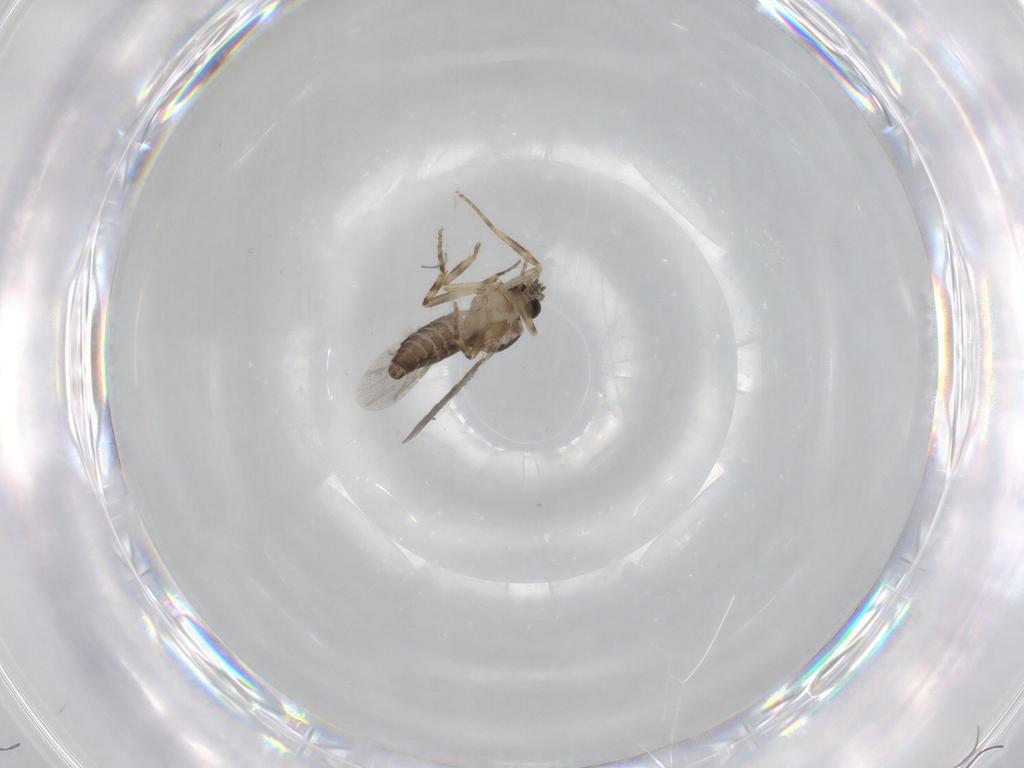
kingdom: Animalia
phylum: Arthropoda
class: Insecta
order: Diptera
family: Ceratopogonidae
